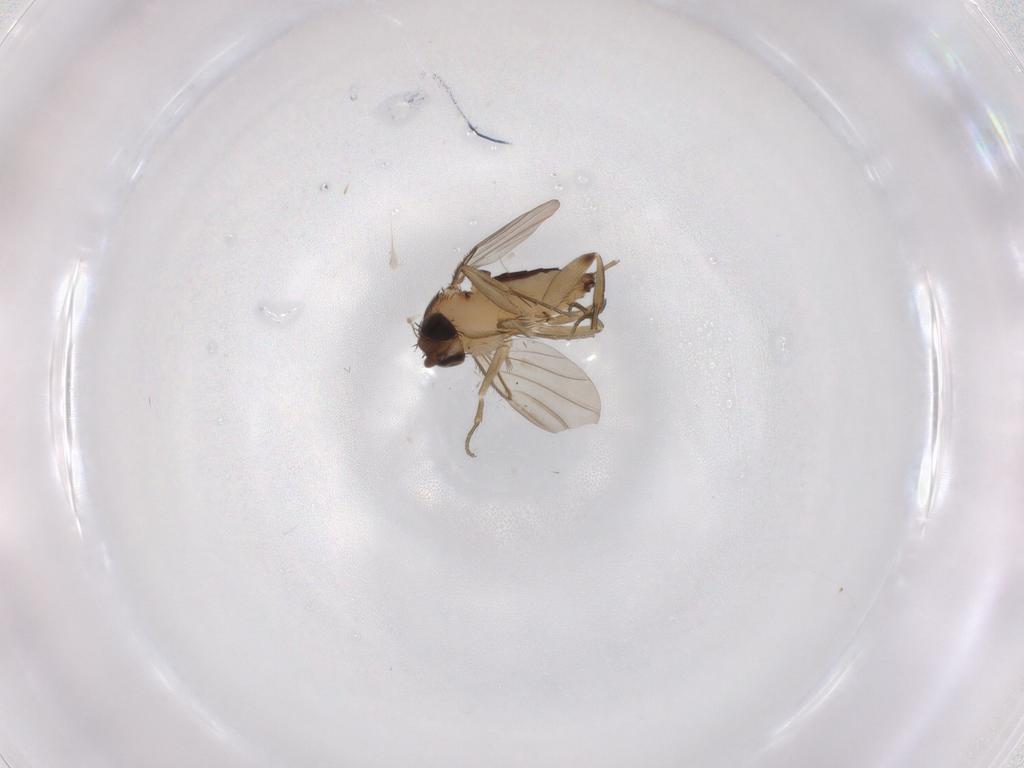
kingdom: Animalia
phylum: Arthropoda
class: Insecta
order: Diptera
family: Phoridae
